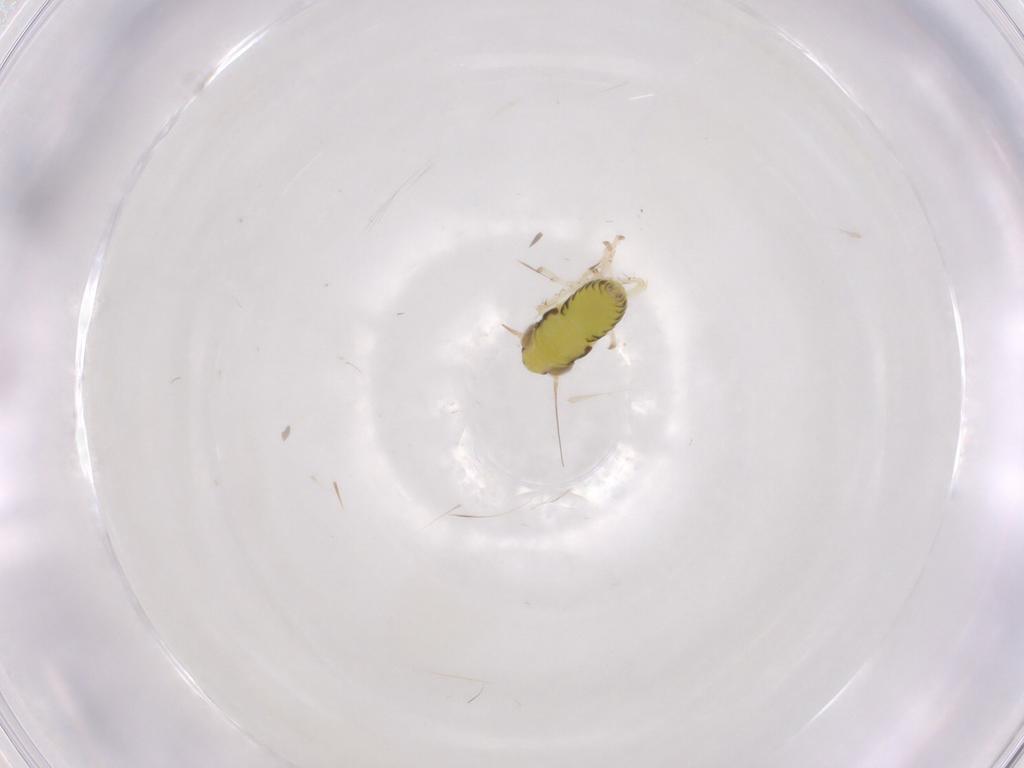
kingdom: Animalia
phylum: Arthropoda
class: Insecta
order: Hemiptera
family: Cicadellidae
